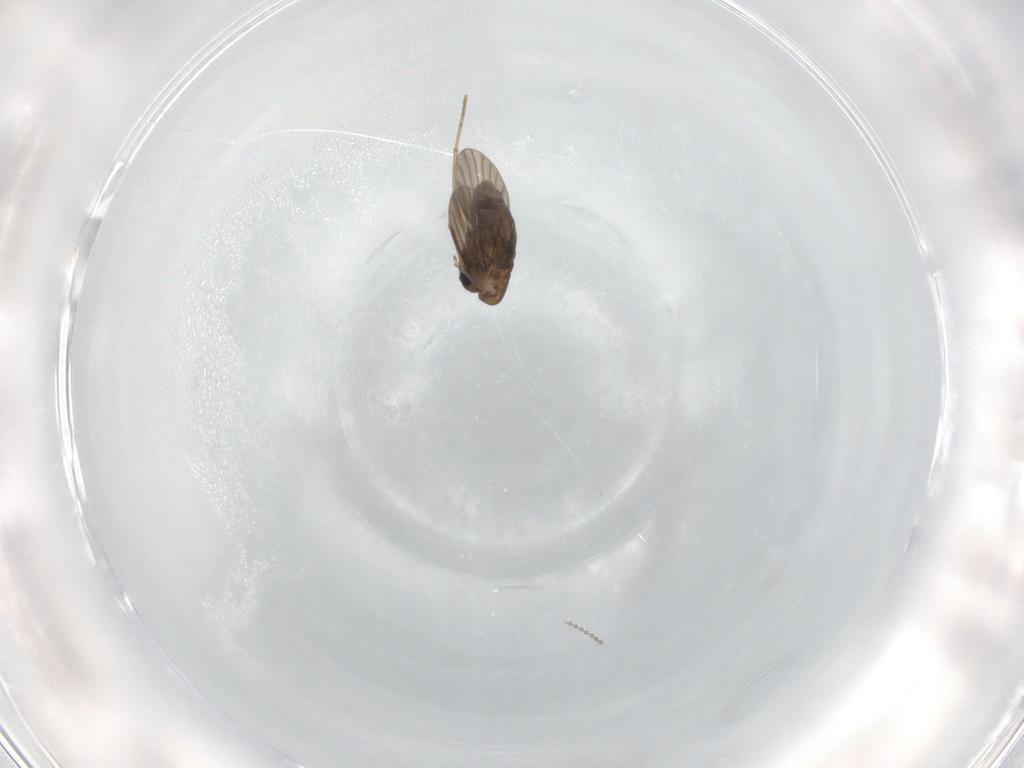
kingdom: Animalia
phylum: Arthropoda
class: Insecta
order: Diptera
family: Cecidomyiidae
